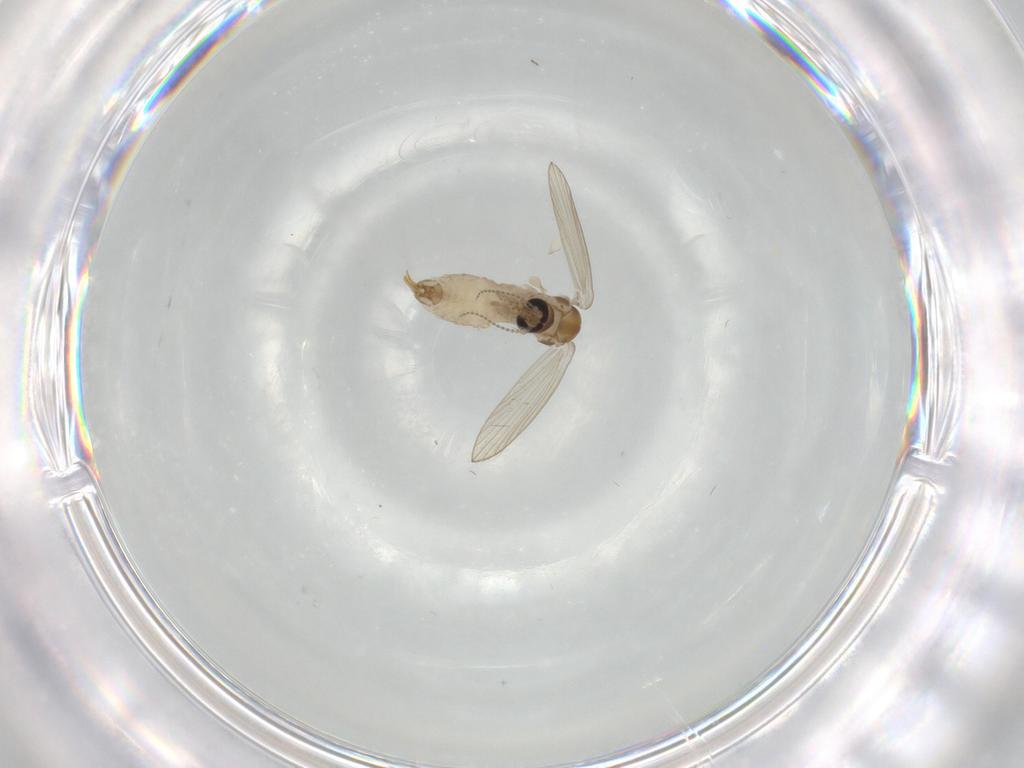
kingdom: Animalia
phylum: Arthropoda
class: Insecta
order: Diptera
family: Psychodidae
